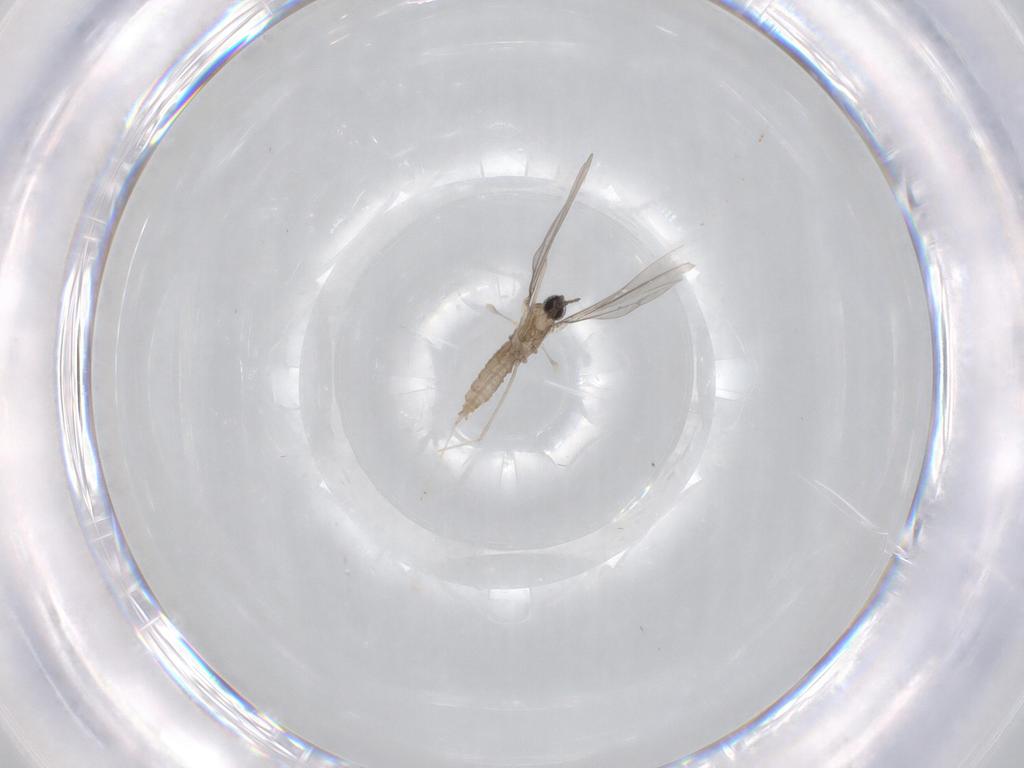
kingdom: Animalia
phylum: Arthropoda
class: Insecta
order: Diptera
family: Cecidomyiidae
